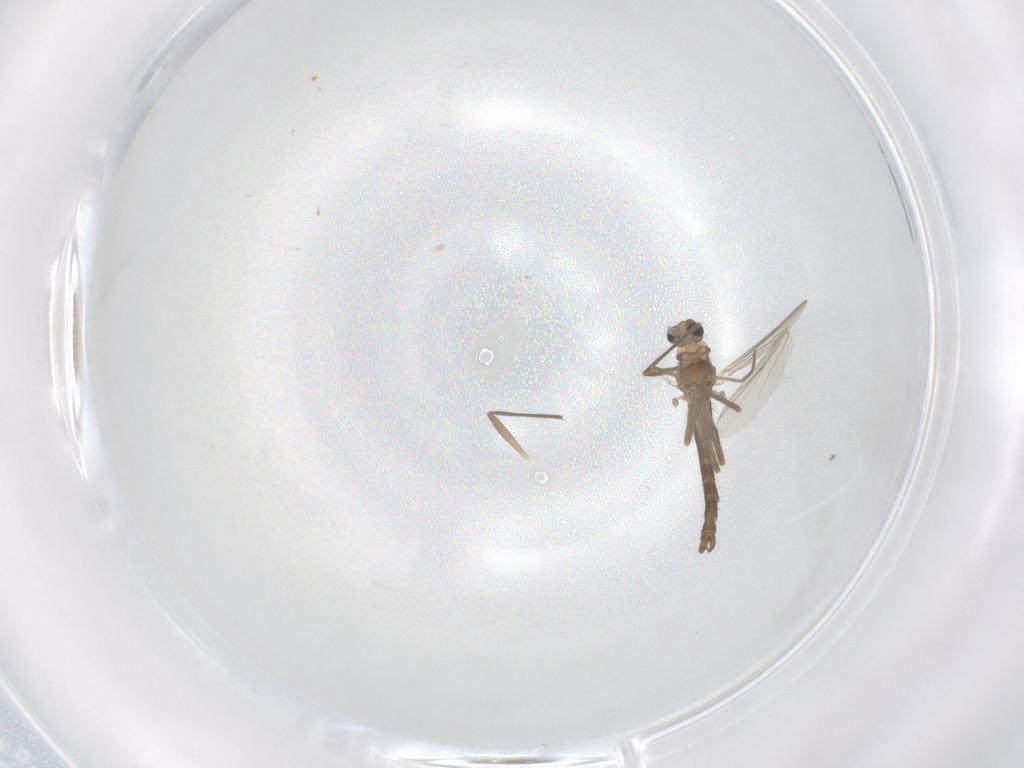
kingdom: Animalia
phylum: Arthropoda
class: Insecta
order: Diptera
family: Chironomidae
